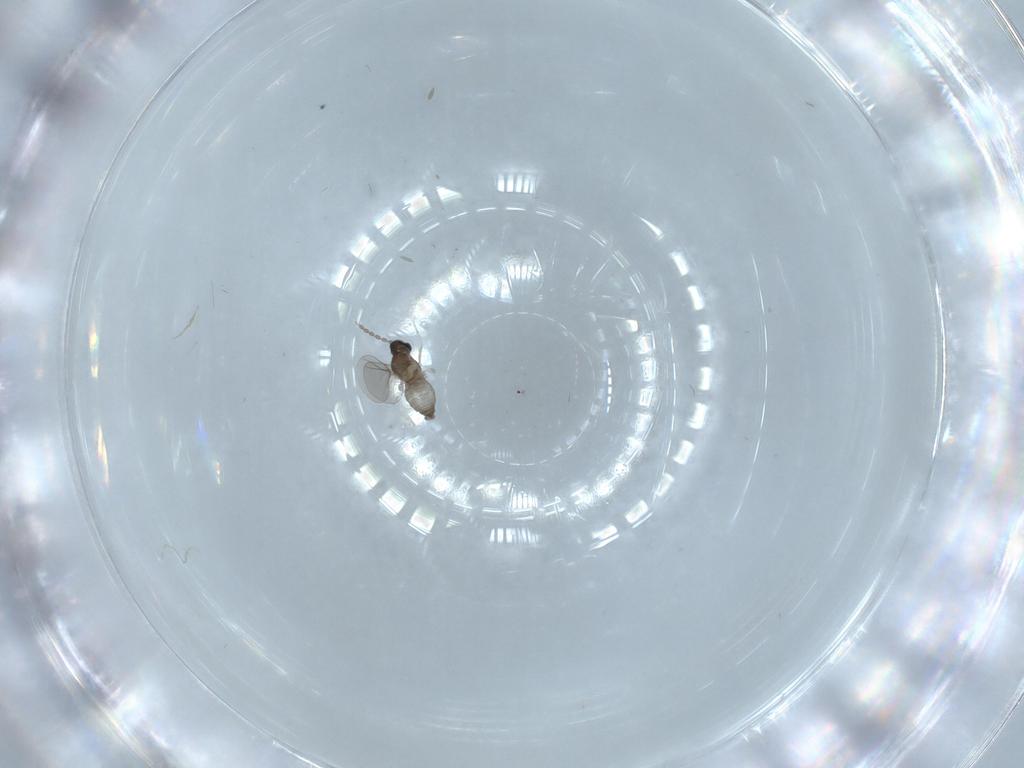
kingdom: Animalia
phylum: Arthropoda
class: Insecta
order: Diptera
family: Cecidomyiidae
